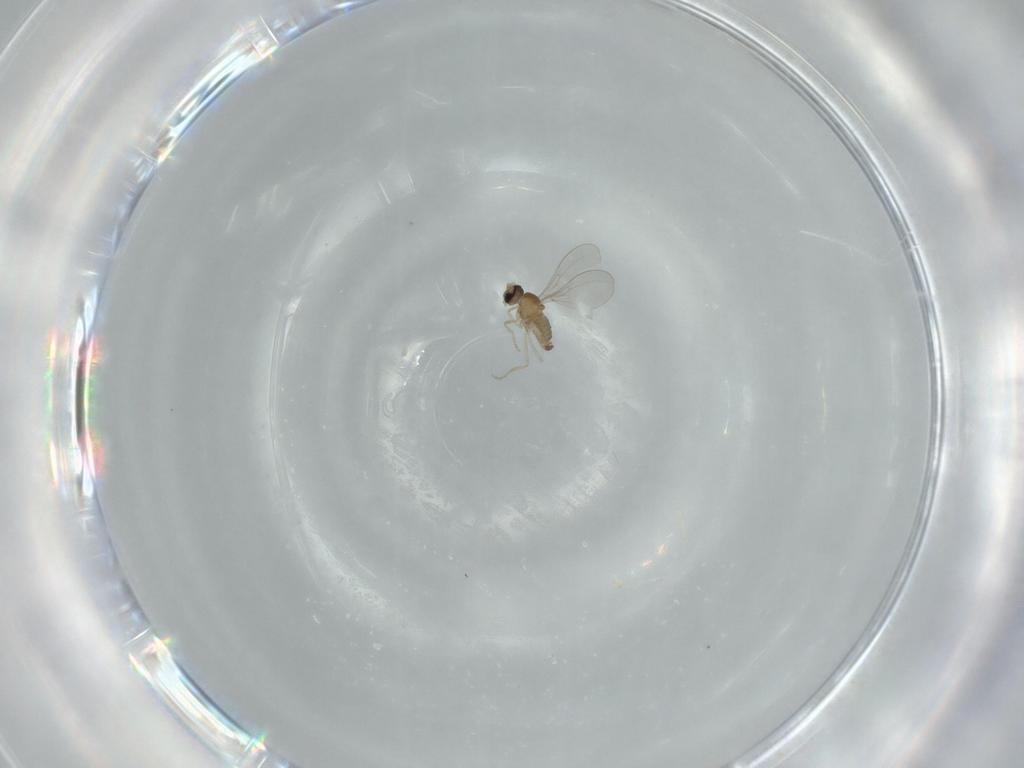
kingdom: Animalia
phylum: Arthropoda
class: Insecta
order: Diptera
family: Cecidomyiidae
